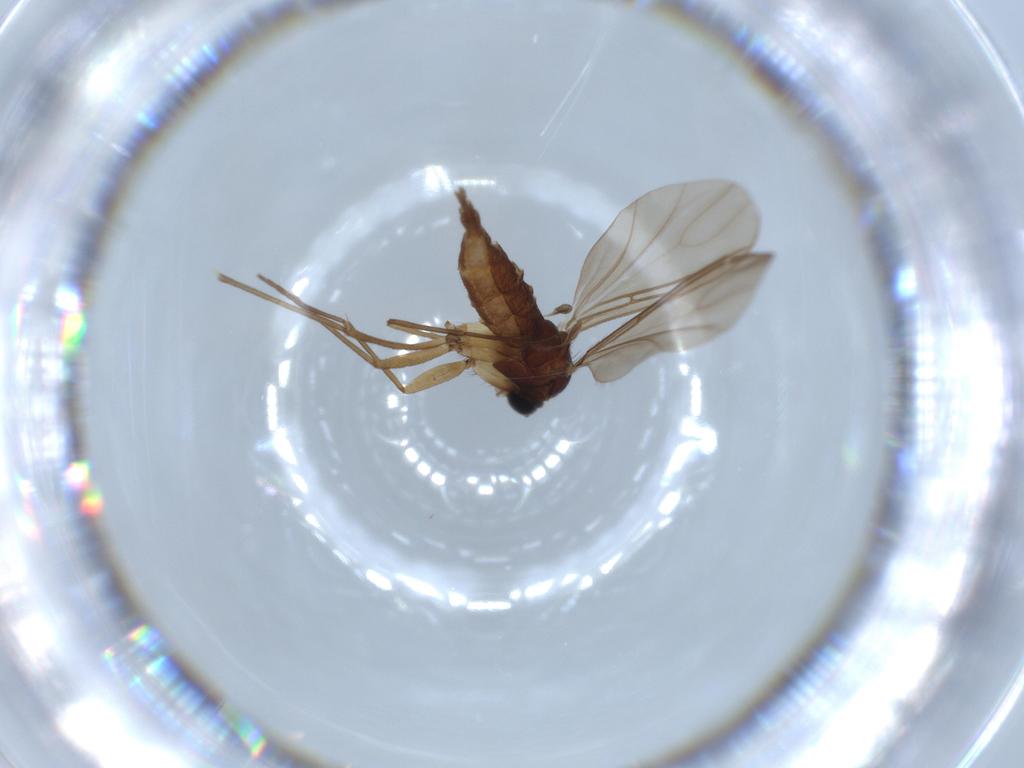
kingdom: Animalia
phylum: Arthropoda
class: Insecta
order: Diptera
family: Sciaridae
